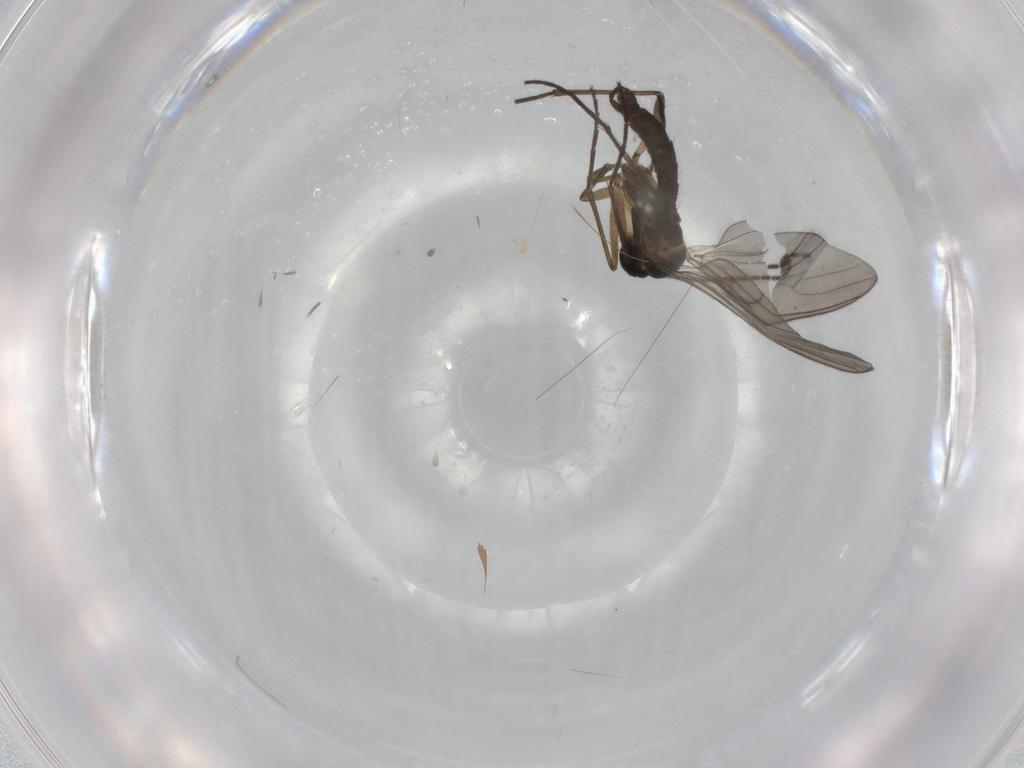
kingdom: Animalia
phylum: Arthropoda
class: Insecta
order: Diptera
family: Sciaridae
